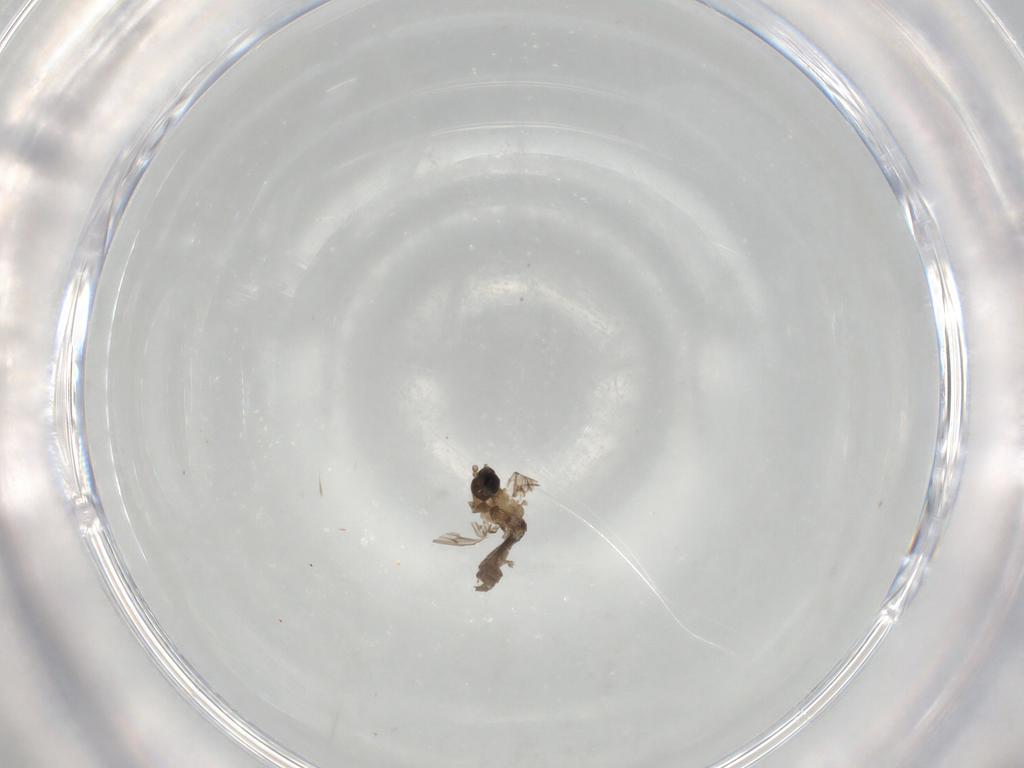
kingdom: Animalia
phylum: Arthropoda
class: Insecta
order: Diptera
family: Psychodidae
